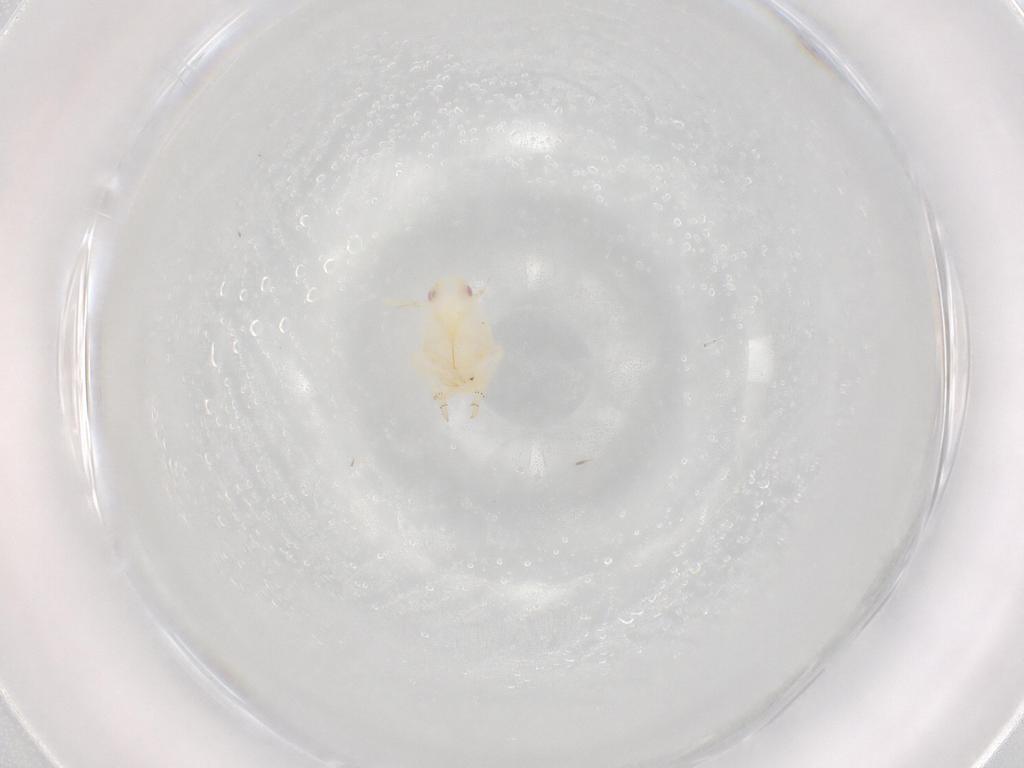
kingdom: Animalia
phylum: Arthropoda
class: Insecta
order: Hemiptera
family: Flatidae
